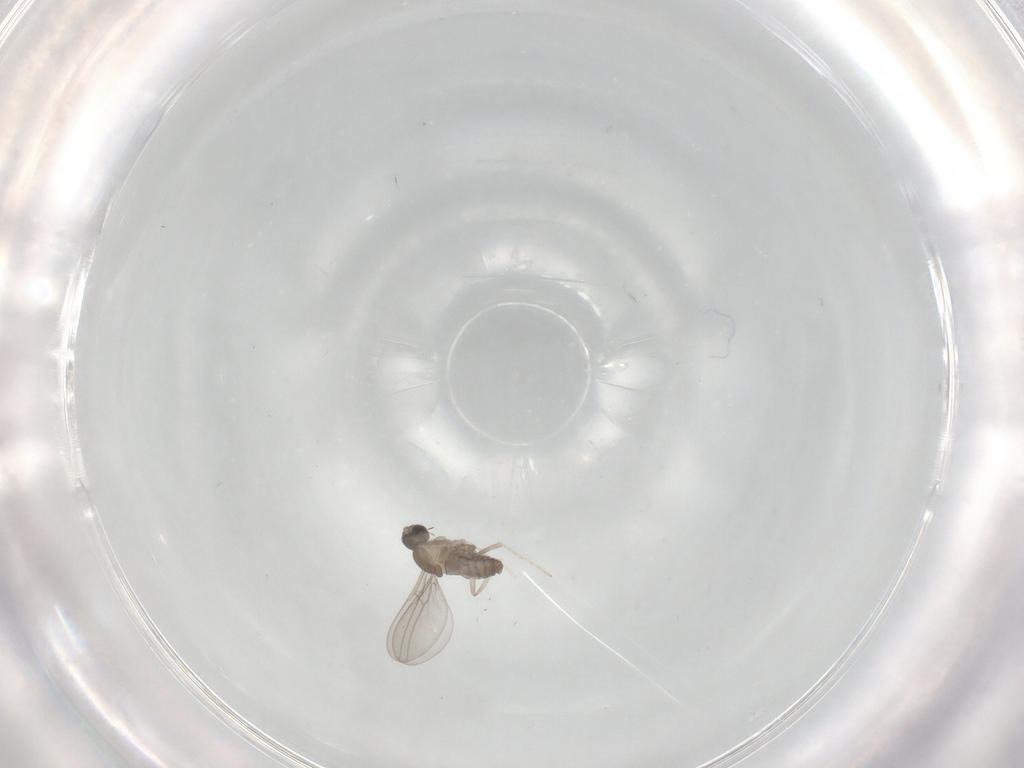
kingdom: Animalia
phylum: Arthropoda
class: Insecta
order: Diptera
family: Cecidomyiidae
